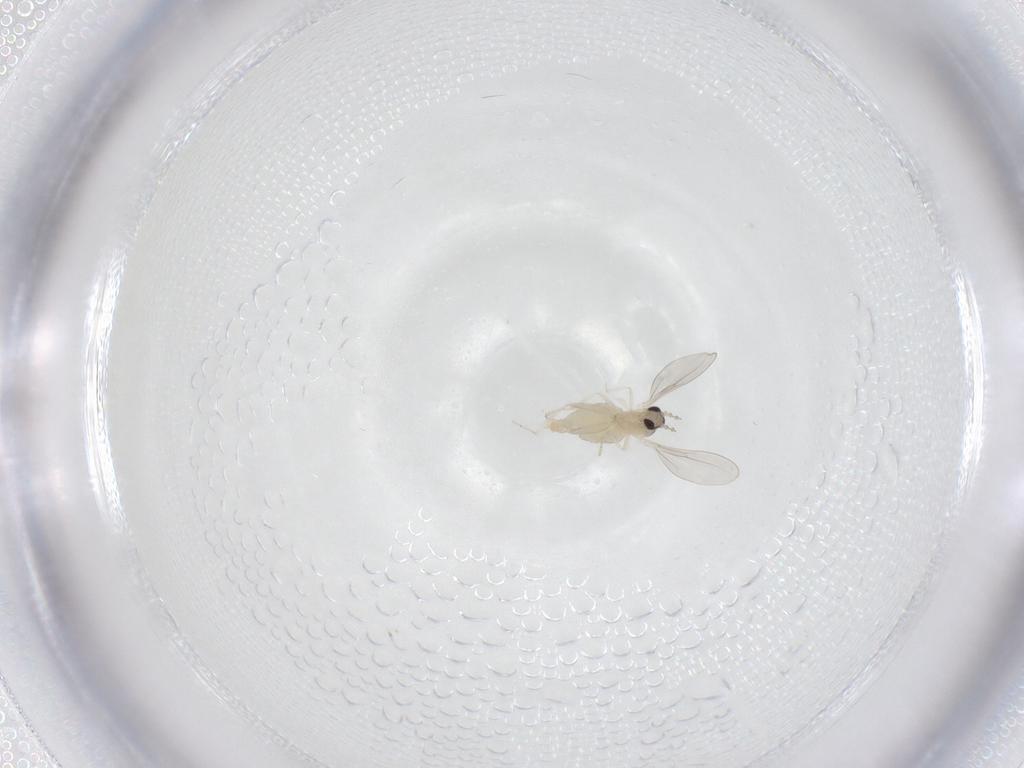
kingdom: Animalia
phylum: Arthropoda
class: Insecta
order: Diptera
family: Cecidomyiidae
